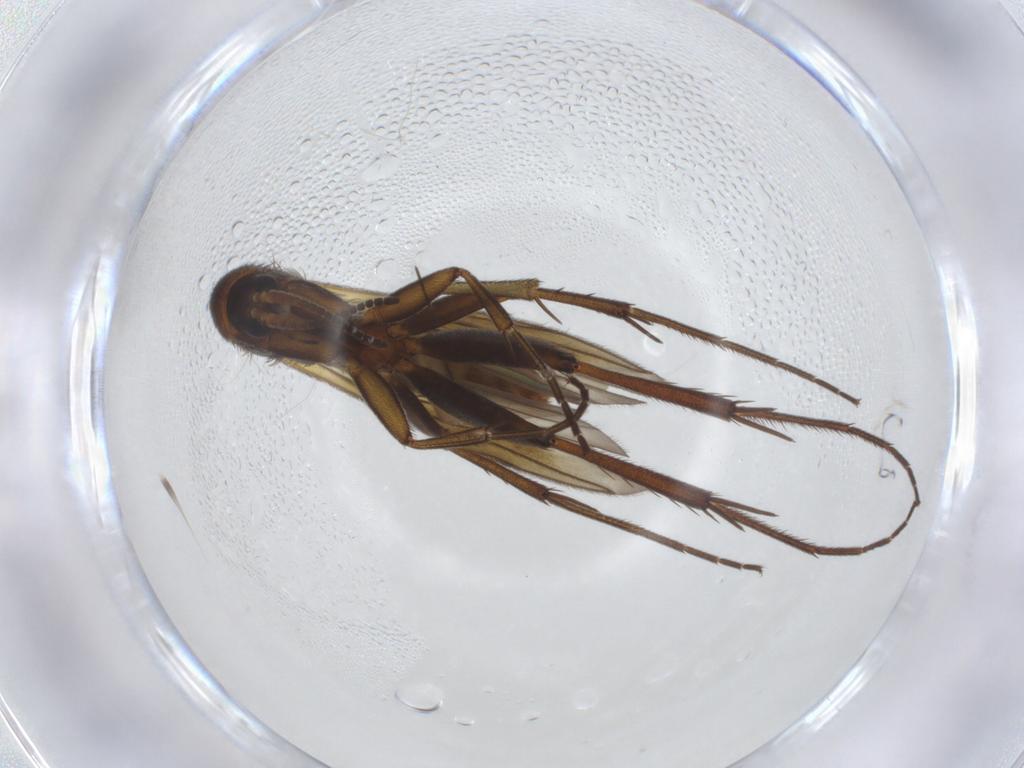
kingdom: Animalia
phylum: Arthropoda
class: Insecta
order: Diptera
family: Chironomidae
